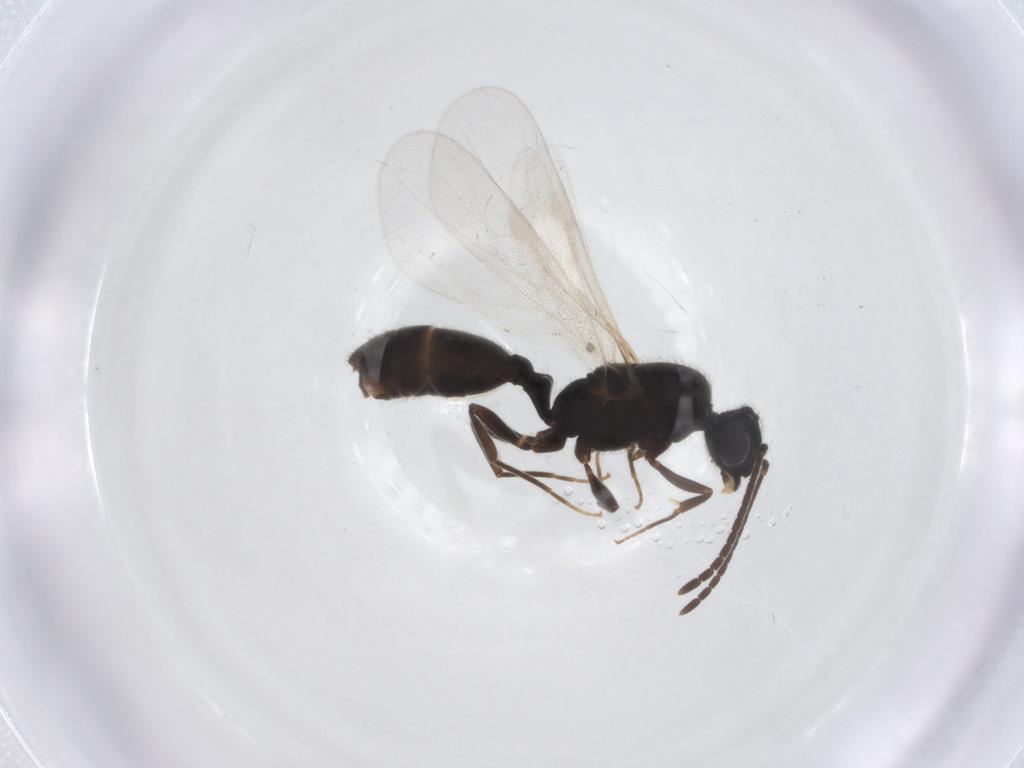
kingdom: Animalia
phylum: Arthropoda
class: Insecta
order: Hymenoptera
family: Formicidae
